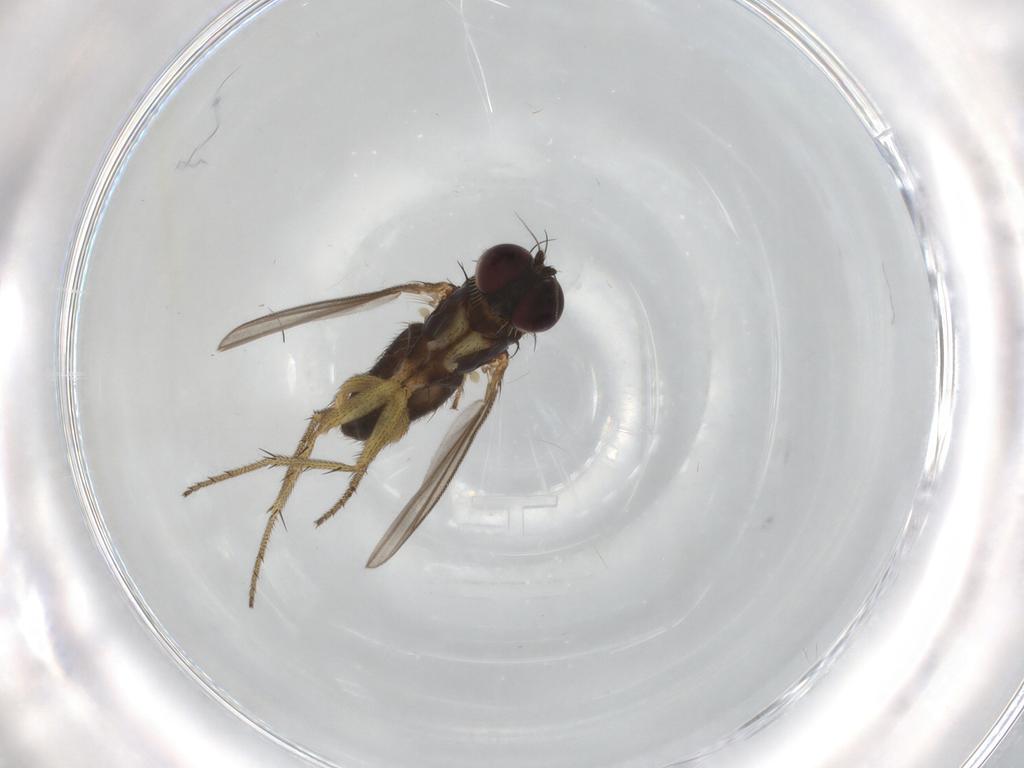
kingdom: Animalia
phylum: Arthropoda
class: Insecta
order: Diptera
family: Dolichopodidae
